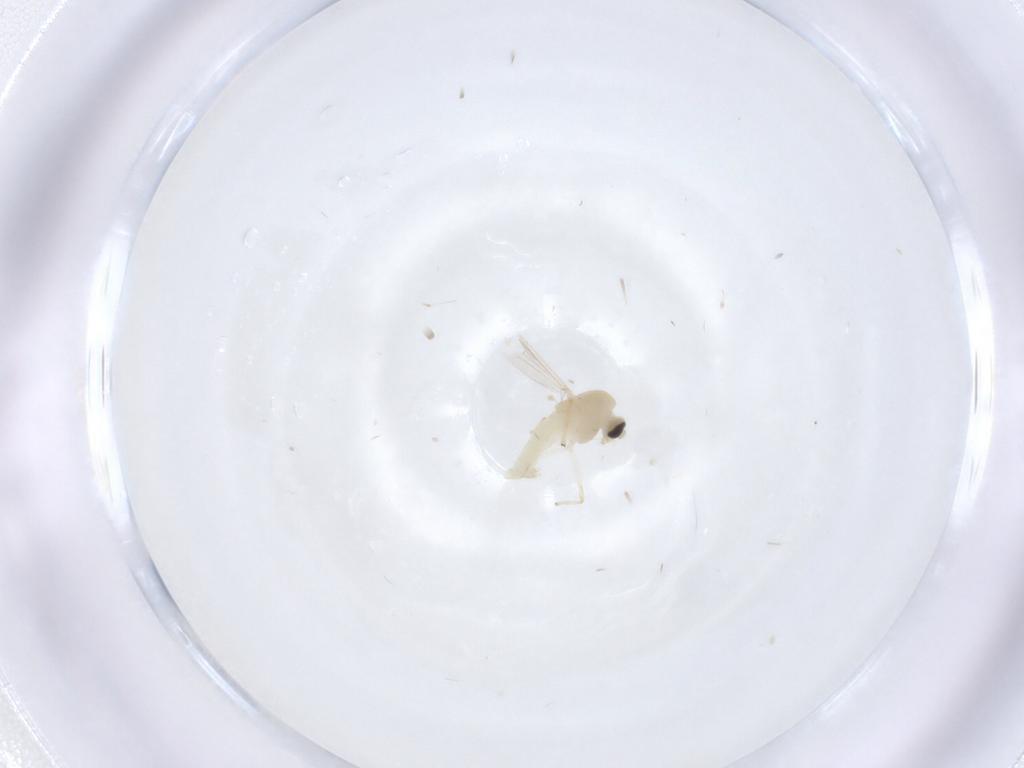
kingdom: Animalia
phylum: Arthropoda
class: Insecta
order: Diptera
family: Chironomidae
